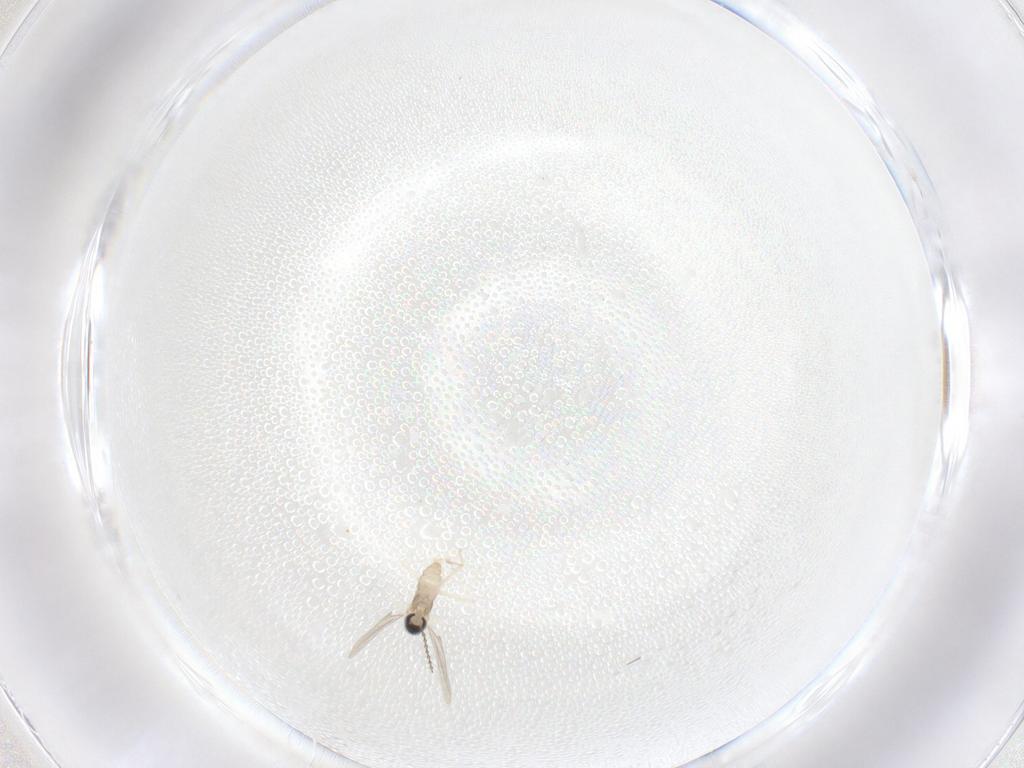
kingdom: Animalia
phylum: Arthropoda
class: Insecta
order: Diptera
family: Cecidomyiidae
